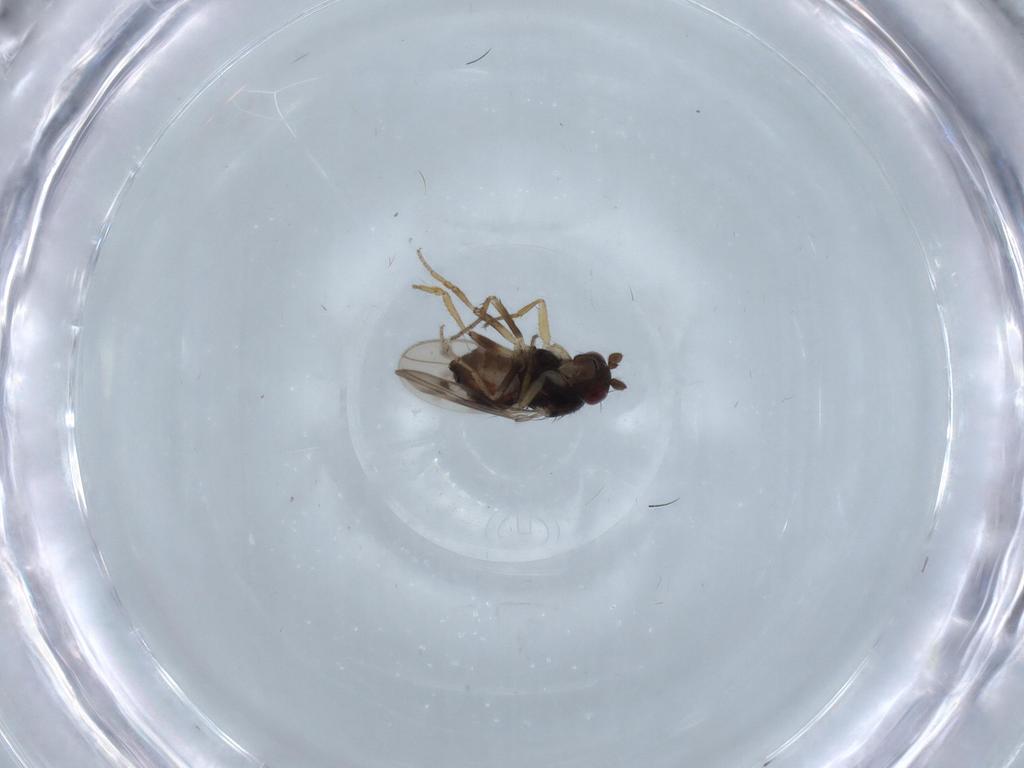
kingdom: Animalia
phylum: Arthropoda
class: Insecta
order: Diptera
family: Sphaeroceridae
